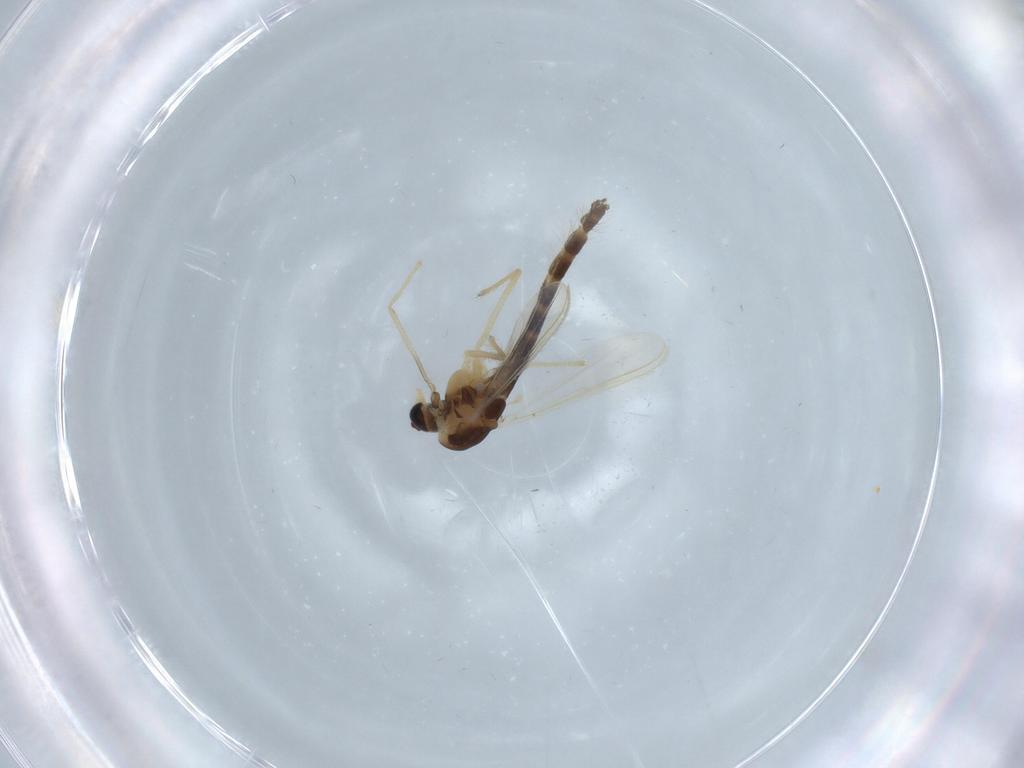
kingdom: Animalia
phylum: Arthropoda
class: Insecta
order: Diptera
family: Chironomidae
